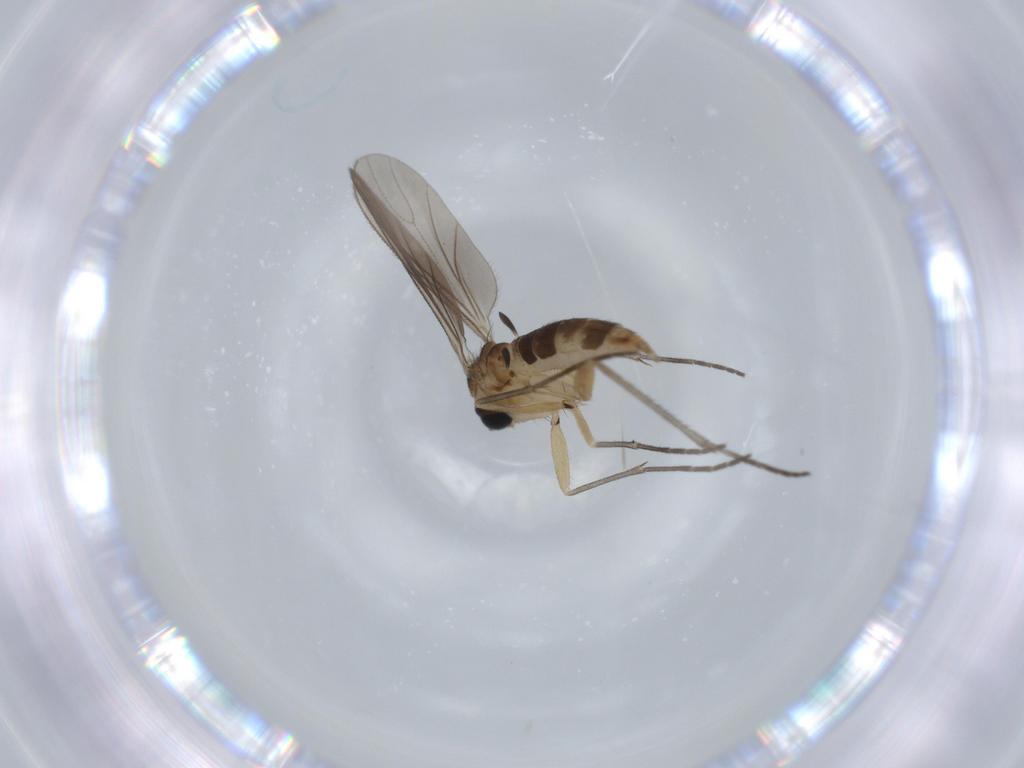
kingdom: Animalia
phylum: Arthropoda
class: Insecta
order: Diptera
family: Sciaridae
